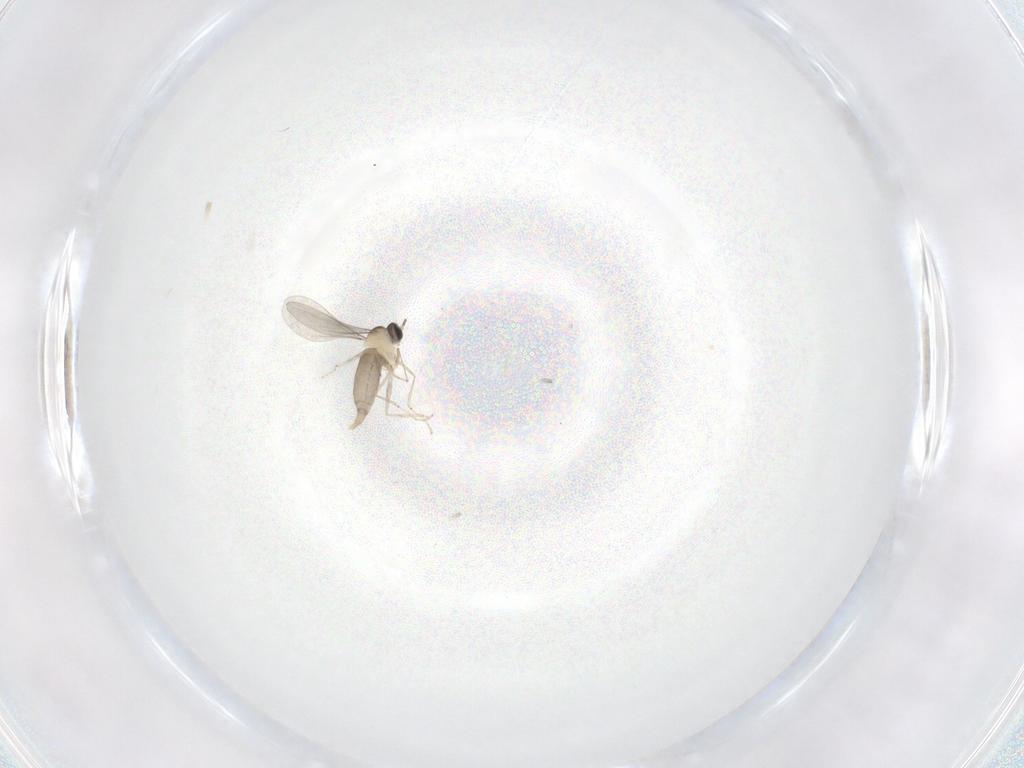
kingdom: Animalia
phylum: Arthropoda
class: Insecta
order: Diptera
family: Cecidomyiidae
